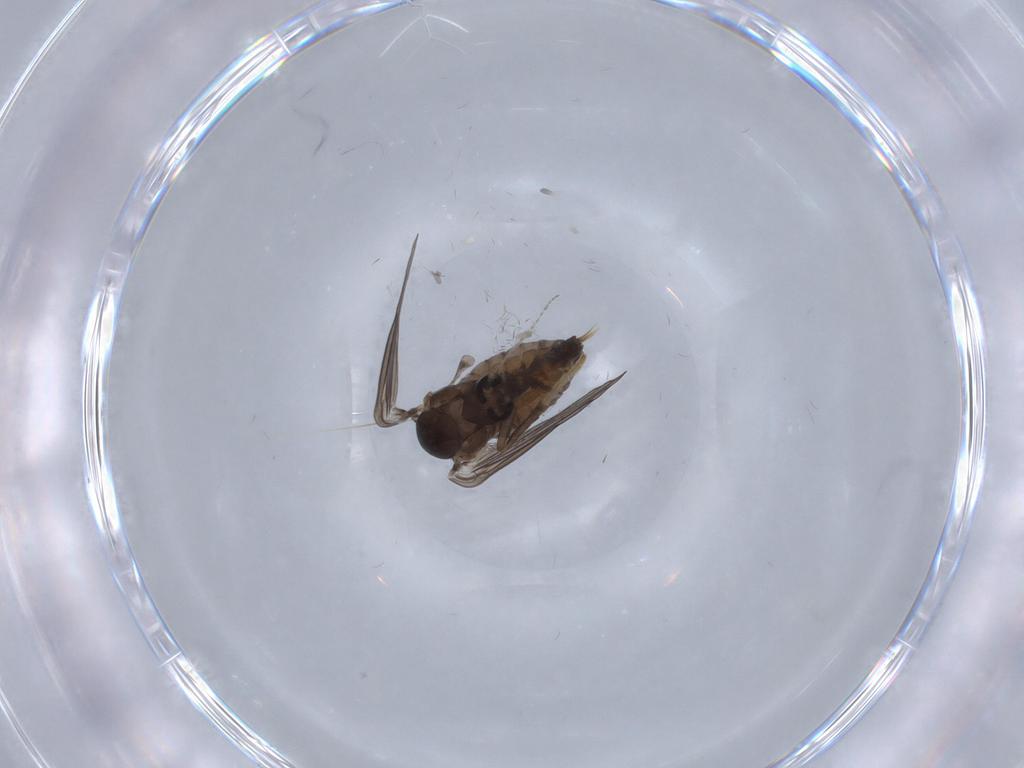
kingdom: Animalia
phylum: Arthropoda
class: Insecta
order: Diptera
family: Psychodidae
